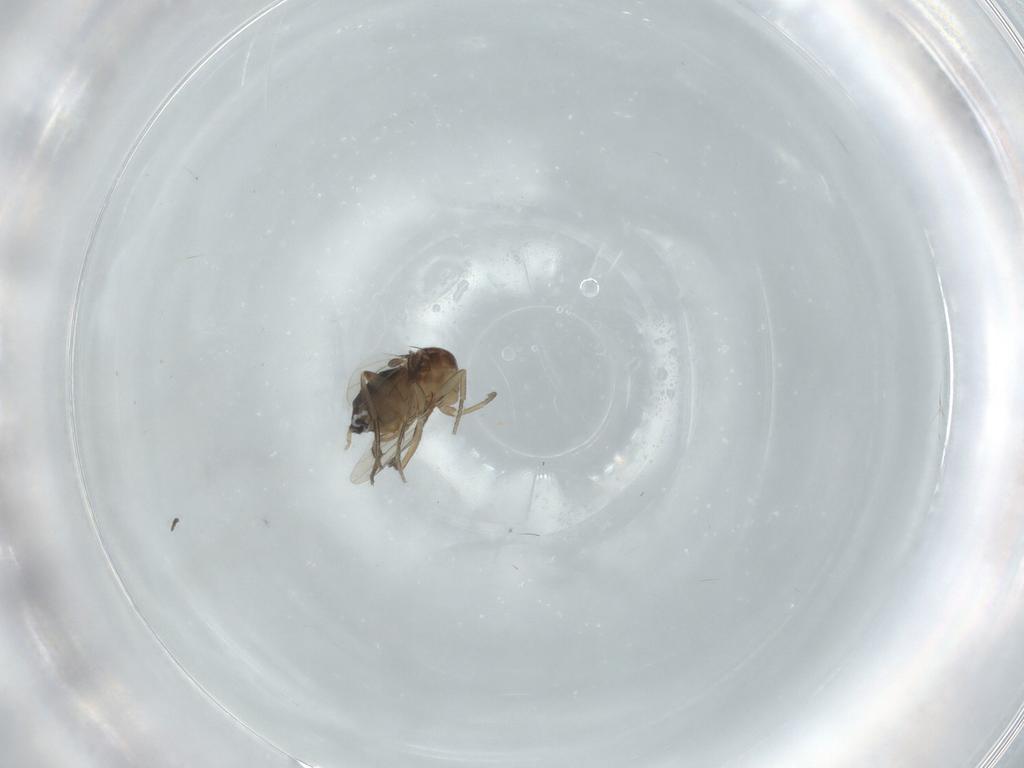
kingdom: Animalia
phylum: Arthropoda
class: Insecta
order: Diptera
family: Phoridae
